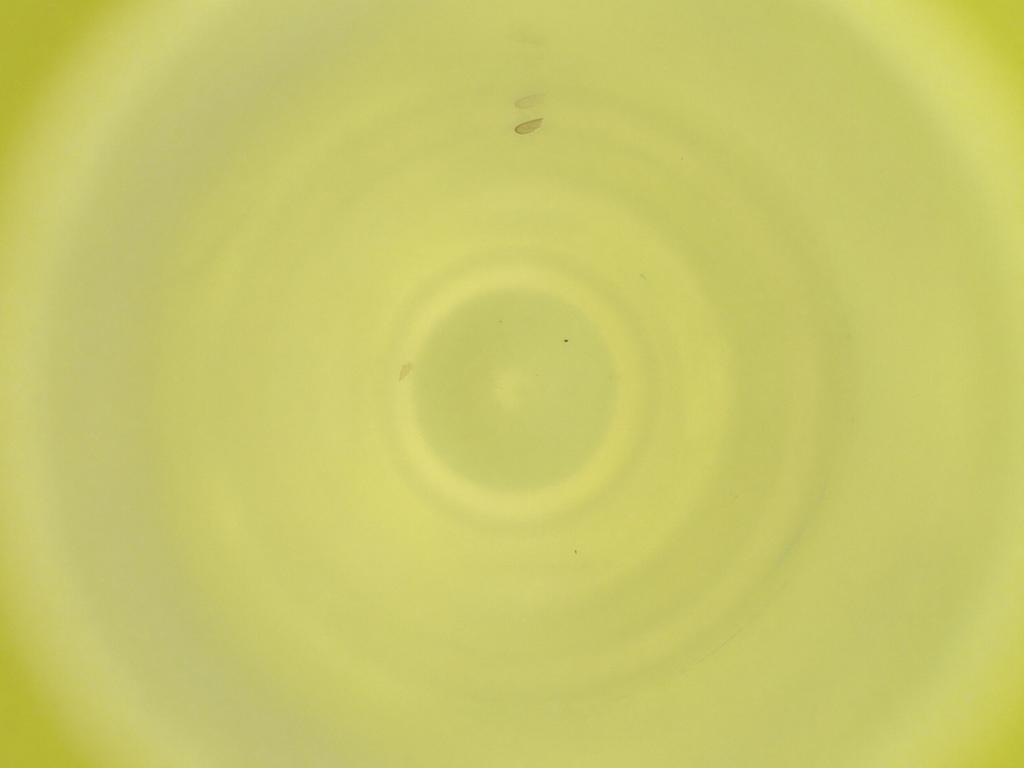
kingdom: Animalia
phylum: Arthropoda
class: Insecta
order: Diptera
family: Cecidomyiidae
